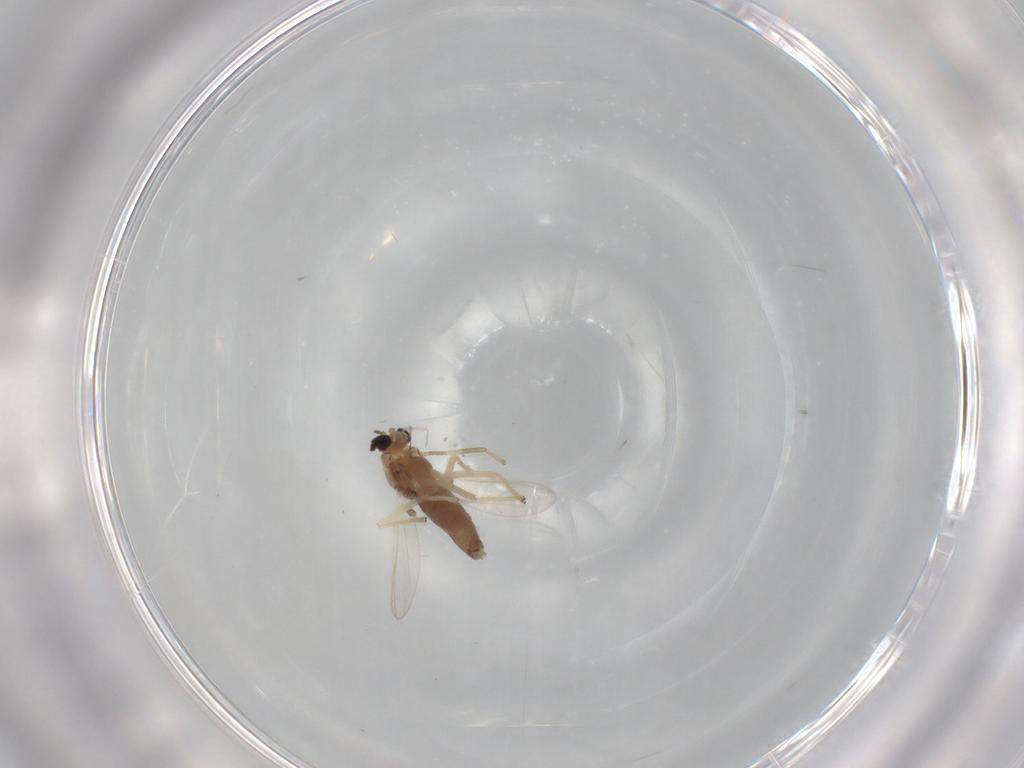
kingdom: Animalia
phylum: Arthropoda
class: Insecta
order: Diptera
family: Chironomidae
